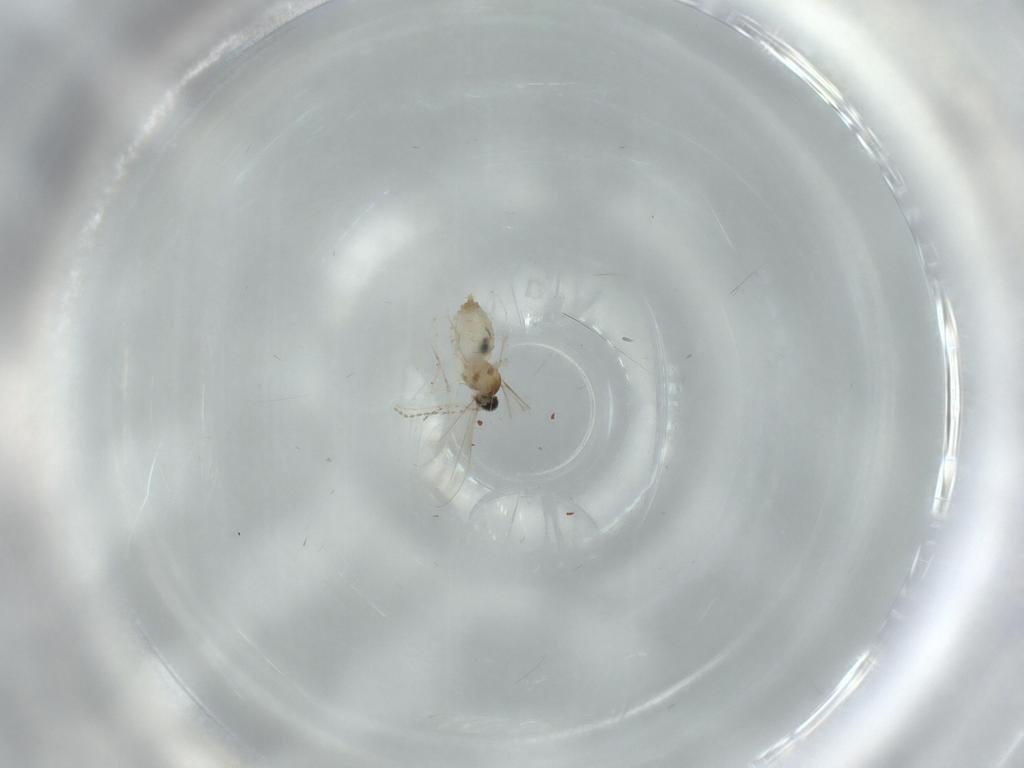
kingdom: Animalia
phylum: Arthropoda
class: Insecta
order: Diptera
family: Cecidomyiidae
